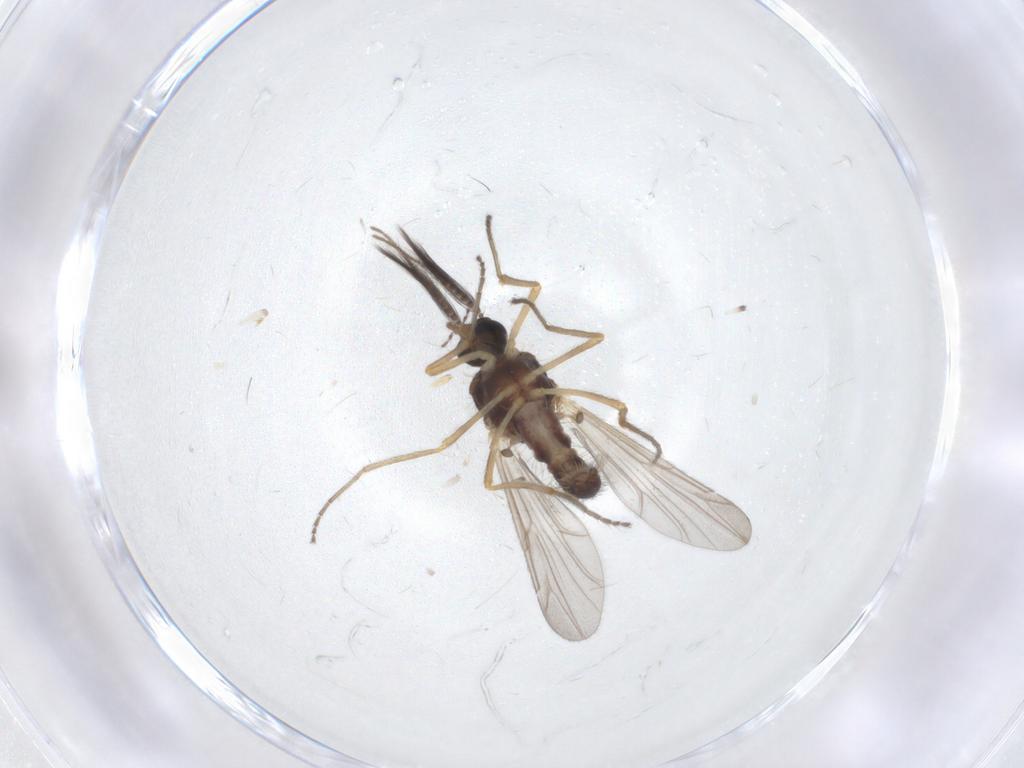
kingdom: Animalia
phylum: Arthropoda
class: Insecta
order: Diptera
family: Ceratopogonidae
